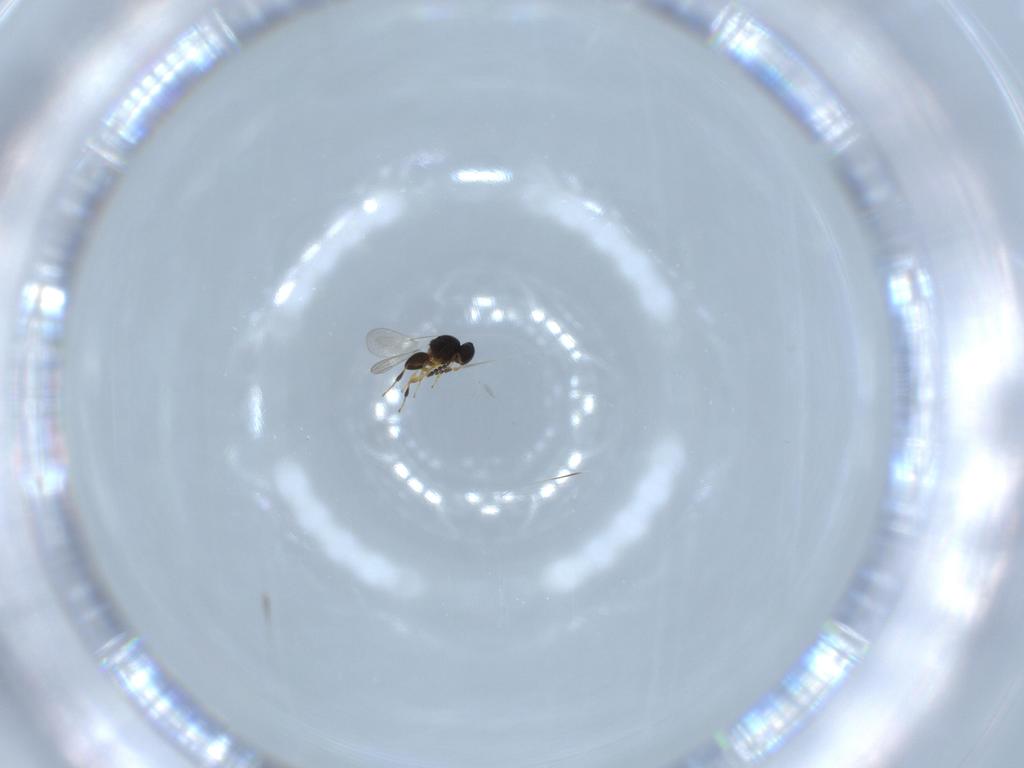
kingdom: Animalia
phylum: Arthropoda
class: Insecta
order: Hymenoptera
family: Platygastridae
